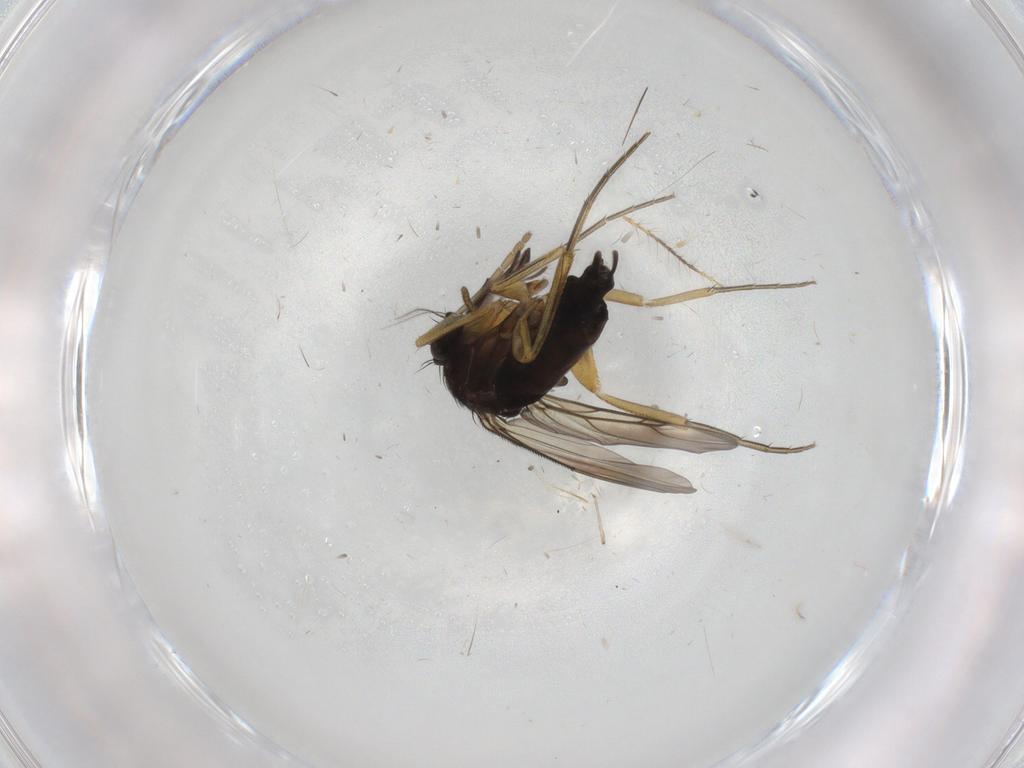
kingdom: Animalia
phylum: Arthropoda
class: Insecta
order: Diptera
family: Chironomidae
